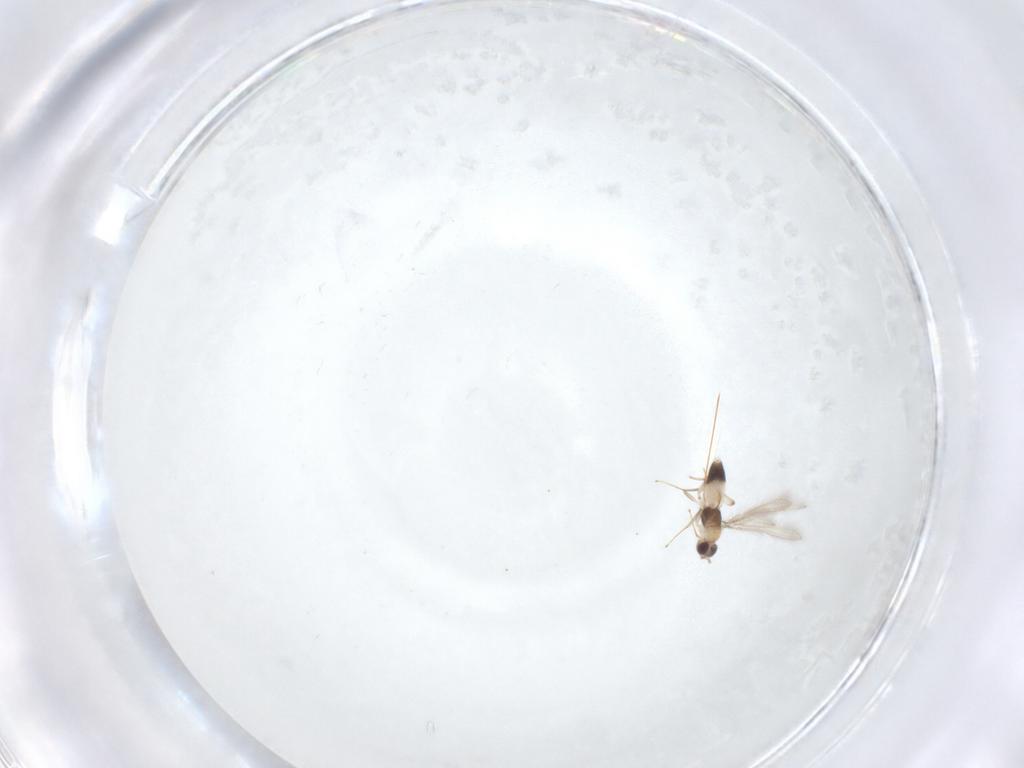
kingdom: Animalia
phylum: Arthropoda
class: Insecta
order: Hymenoptera
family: Mymaridae
